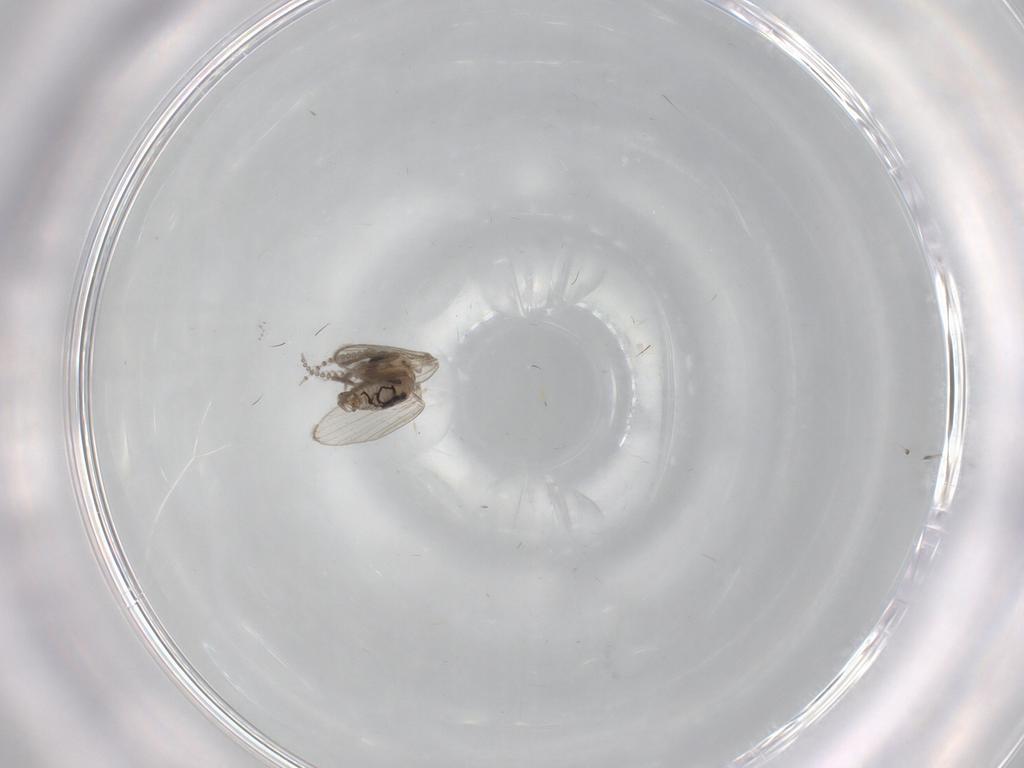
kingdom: Animalia
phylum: Arthropoda
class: Insecta
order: Diptera
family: Psychodidae
